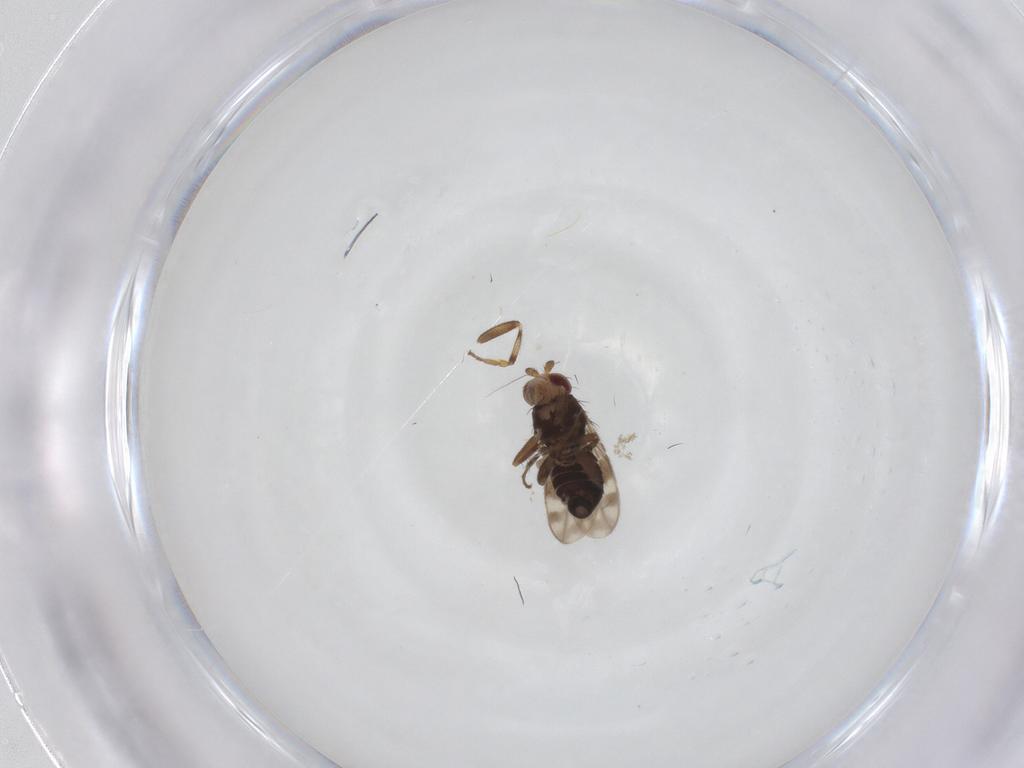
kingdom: Animalia
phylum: Arthropoda
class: Insecta
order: Diptera
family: Sphaeroceridae
